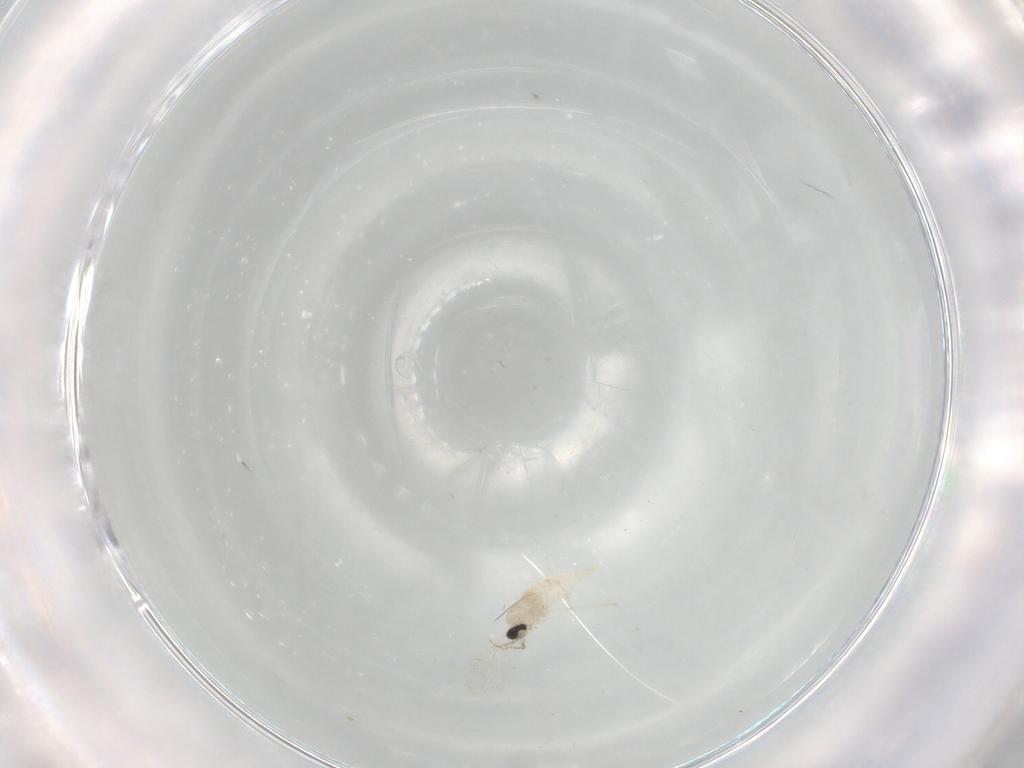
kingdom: Animalia
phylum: Arthropoda
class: Insecta
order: Diptera
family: Cecidomyiidae
